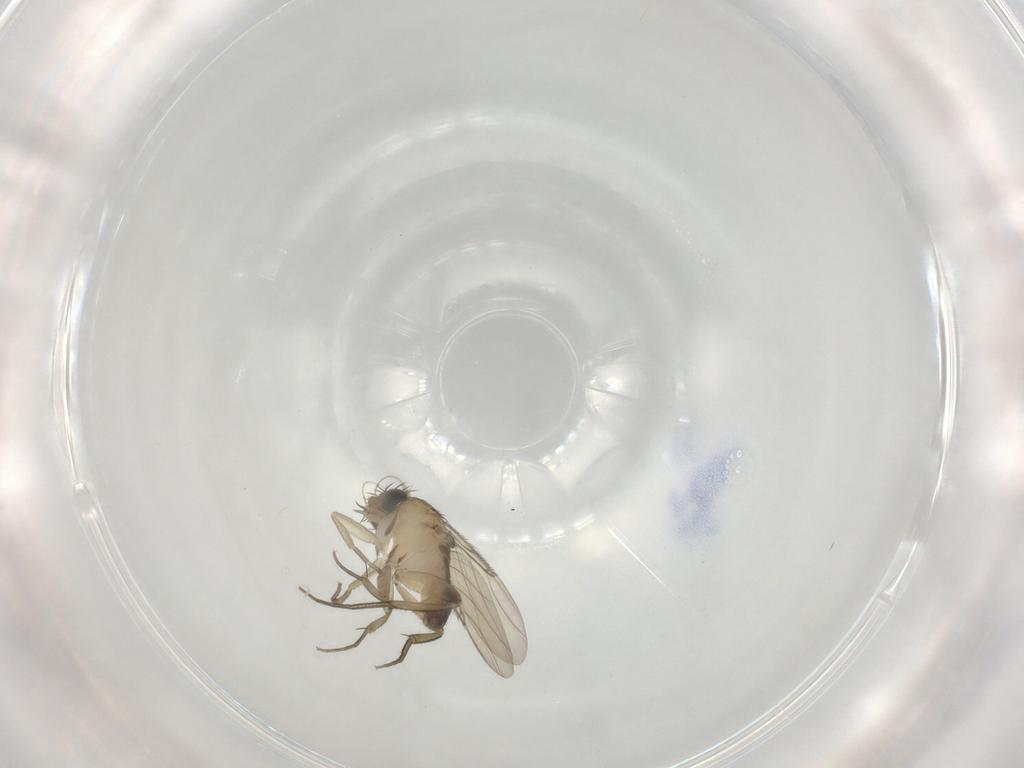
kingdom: Animalia
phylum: Arthropoda
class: Insecta
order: Diptera
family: Phoridae
